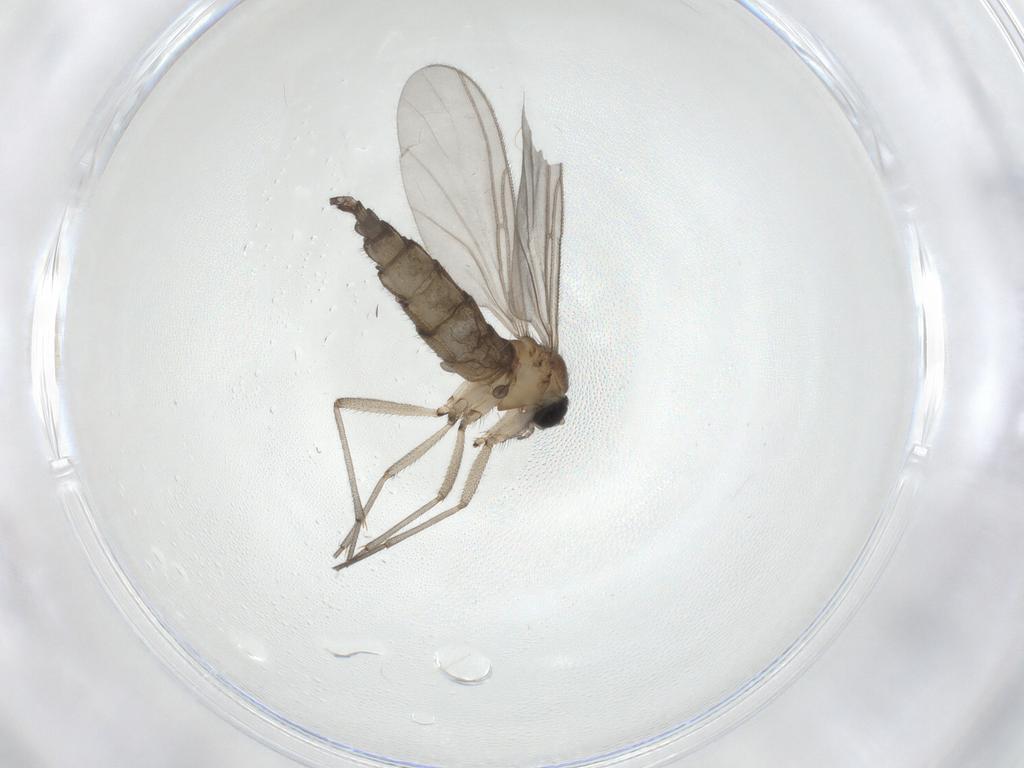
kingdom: Animalia
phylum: Arthropoda
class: Insecta
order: Diptera
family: Cecidomyiidae
